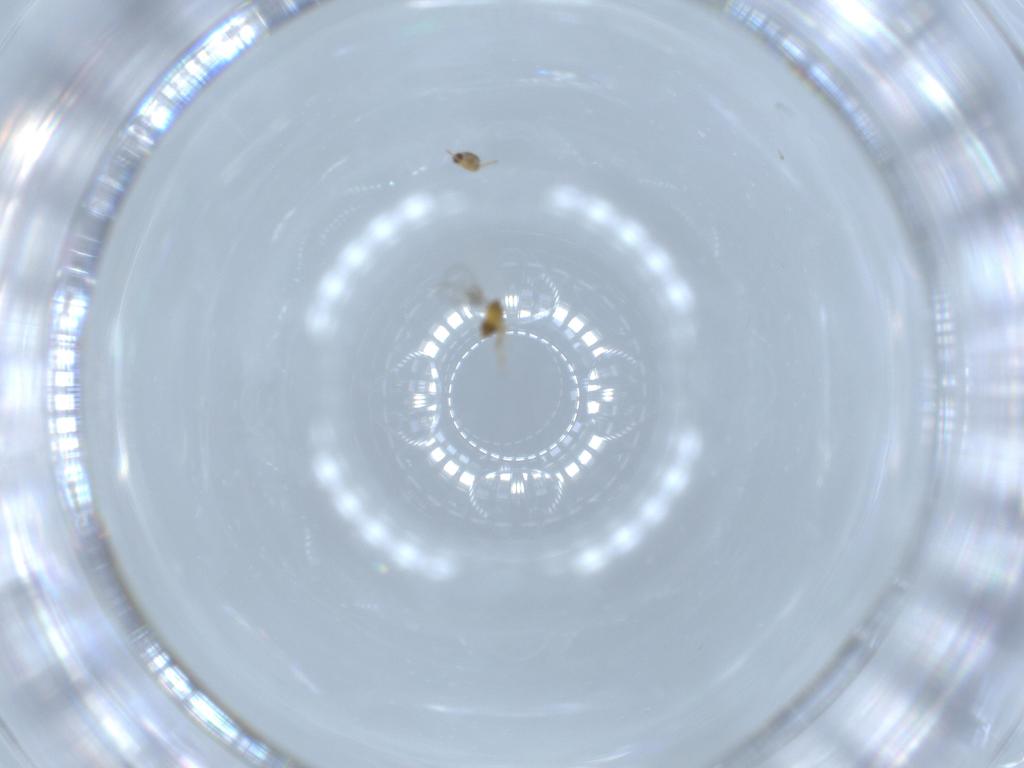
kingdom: Animalia
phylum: Arthropoda
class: Insecta
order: Hymenoptera
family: Aphelinidae
